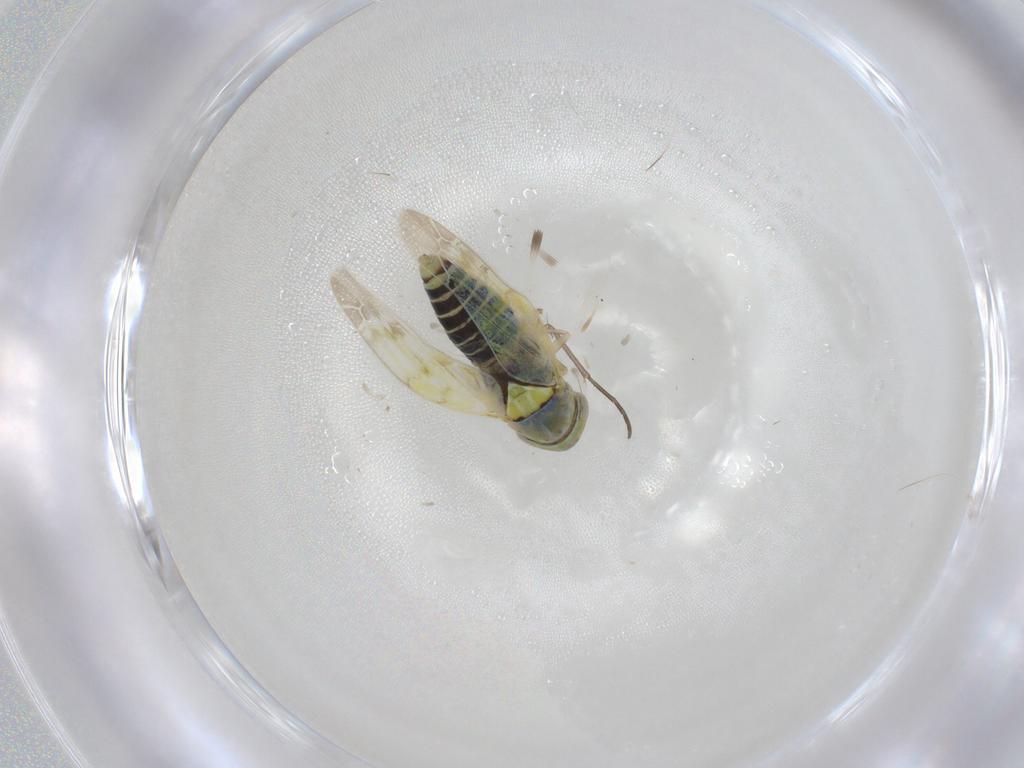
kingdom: Animalia
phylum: Arthropoda
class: Insecta
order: Hemiptera
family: Cicadellidae
